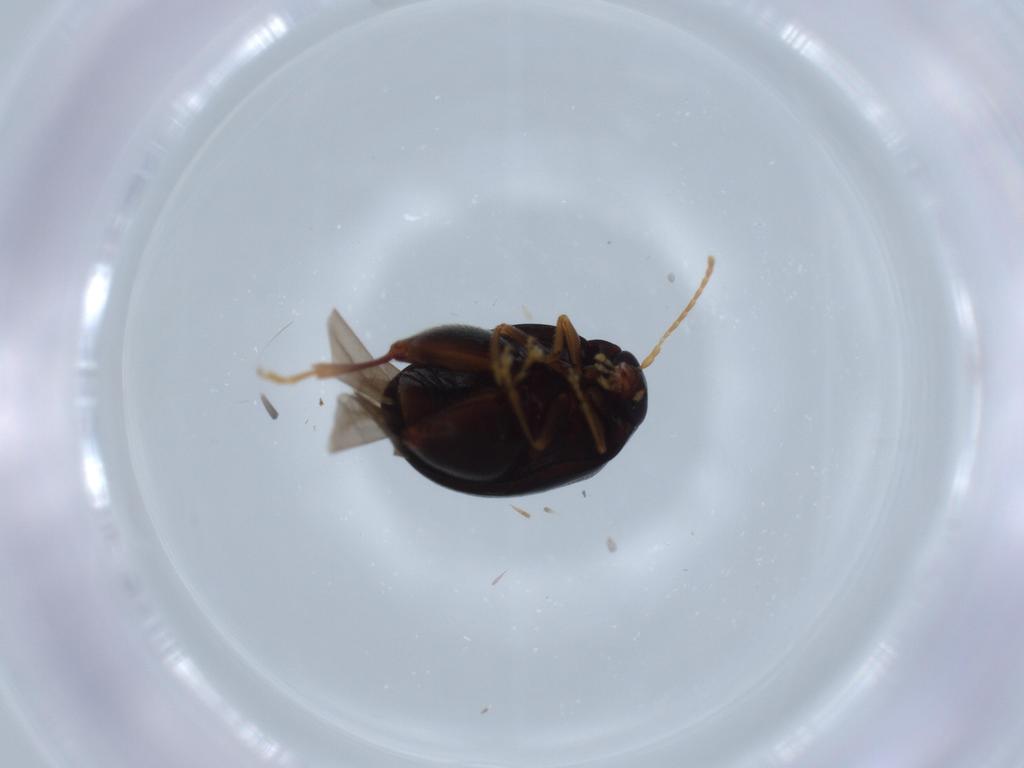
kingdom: Animalia
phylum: Arthropoda
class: Insecta
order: Coleoptera
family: Chrysomelidae
